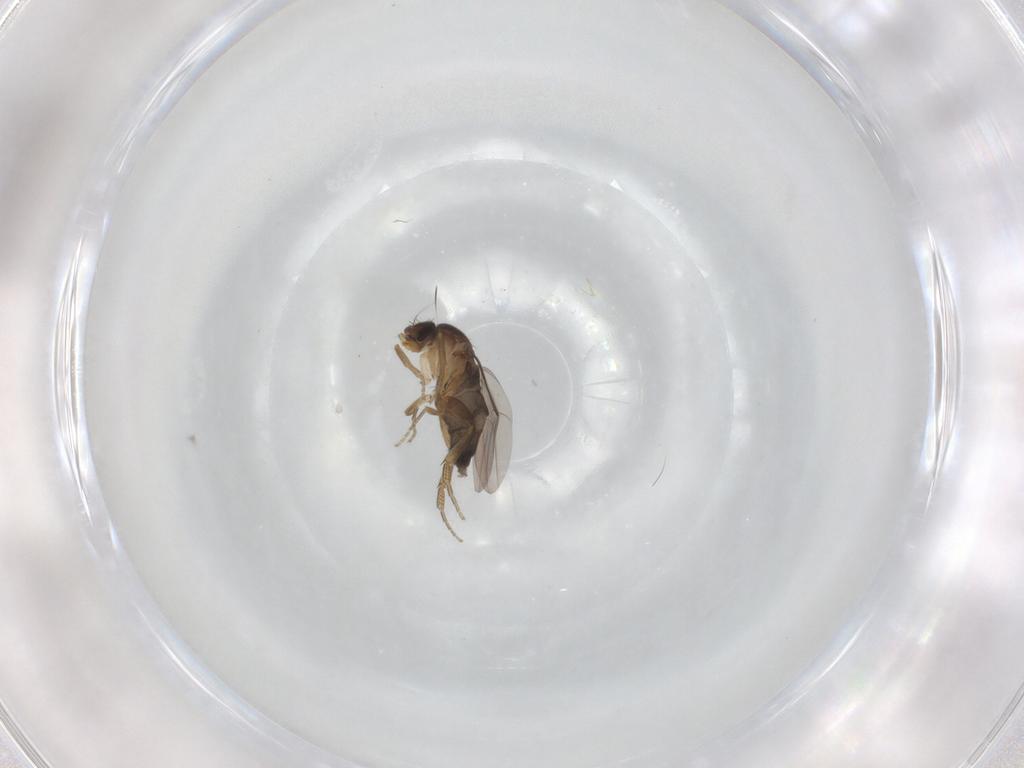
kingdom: Animalia
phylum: Arthropoda
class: Insecta
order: Diptera
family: Phoridae
